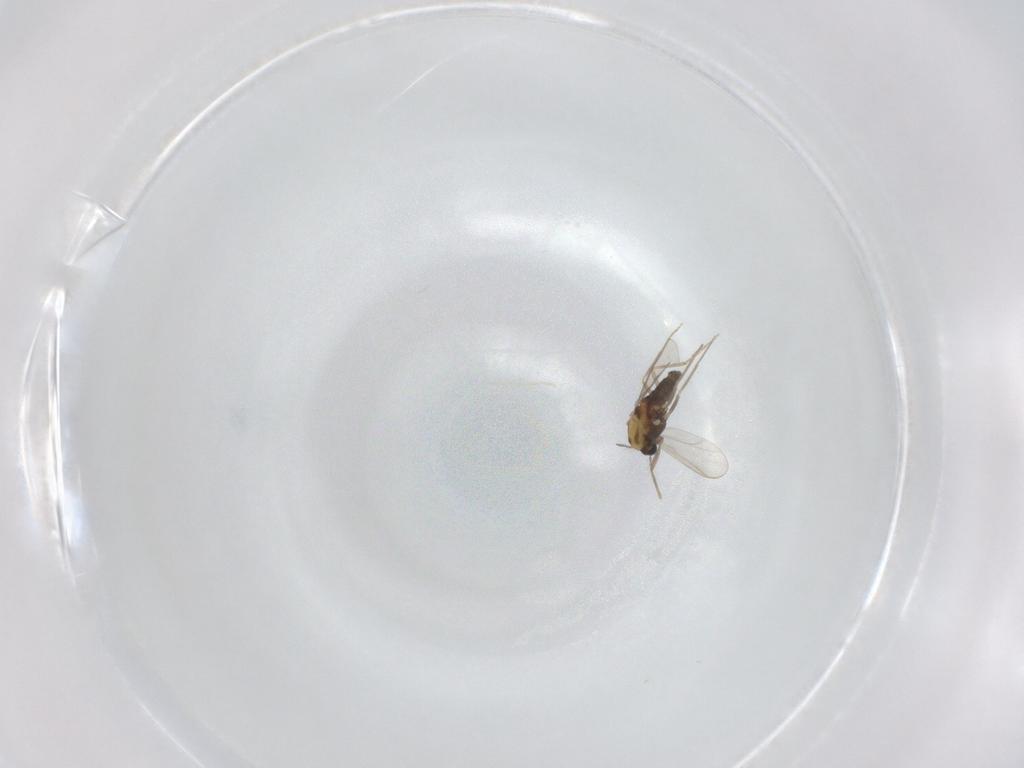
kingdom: Animalia
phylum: Arthropoda
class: Insecta
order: Diptera
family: Chironomidae
